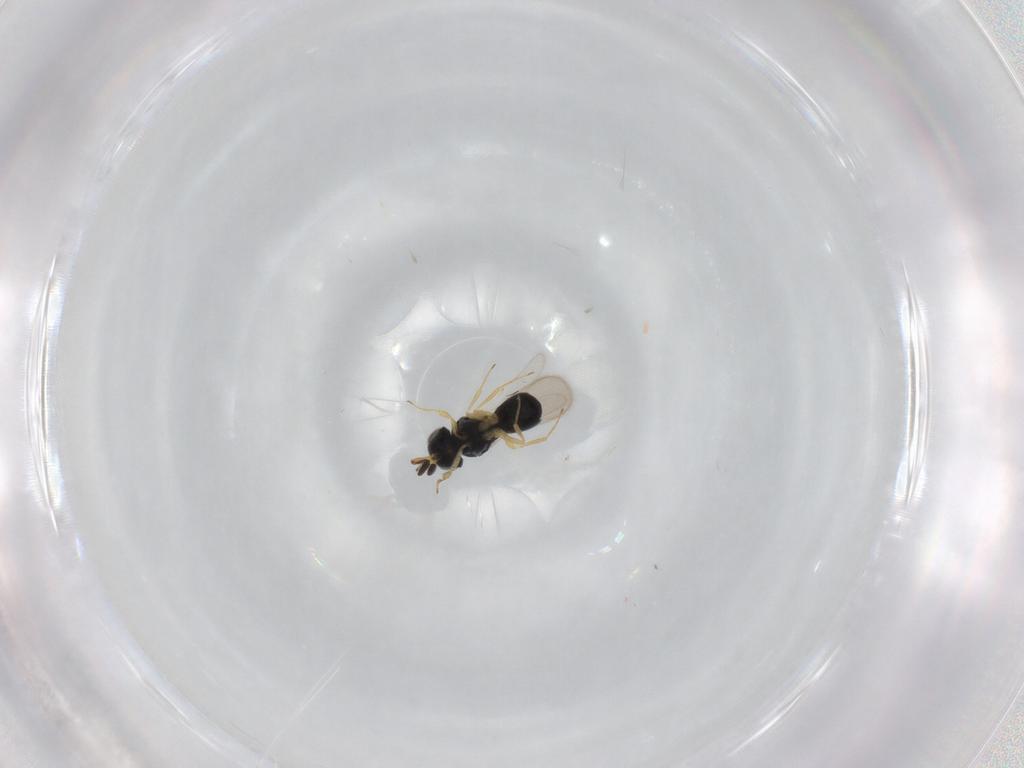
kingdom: Animalia
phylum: Arthropoda
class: Insecta
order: Hymenoptera
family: Scelionidae
